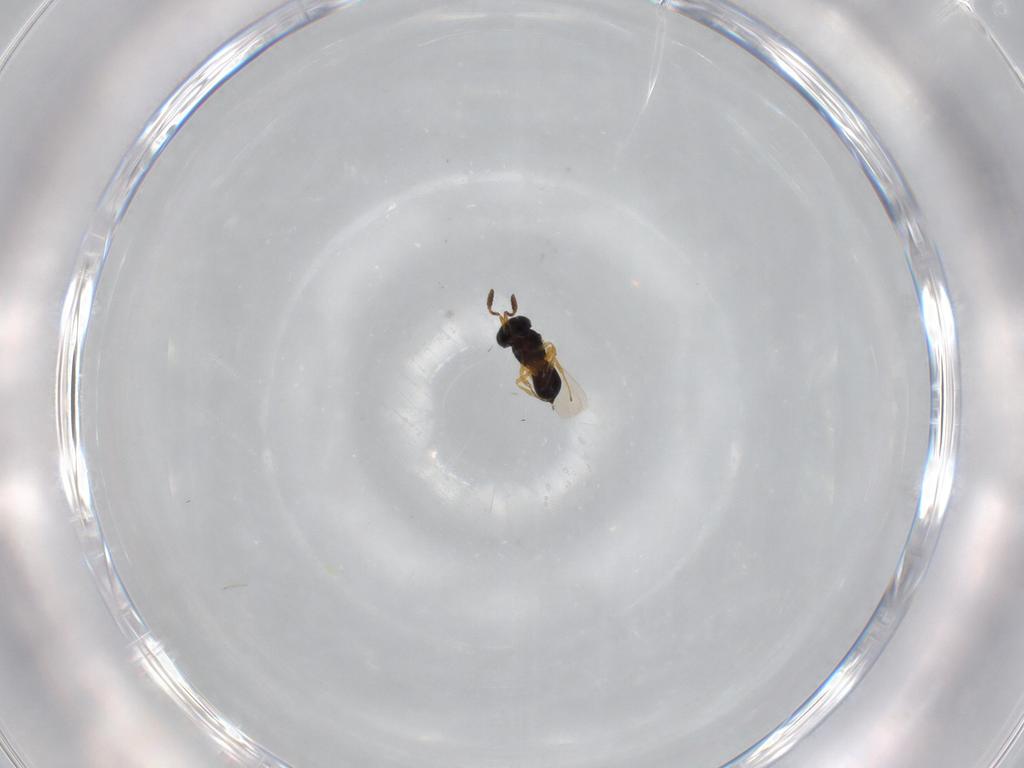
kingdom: Animalia
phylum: Arthropoda
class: Insecta
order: Hymenoptera
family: Scelionidae
